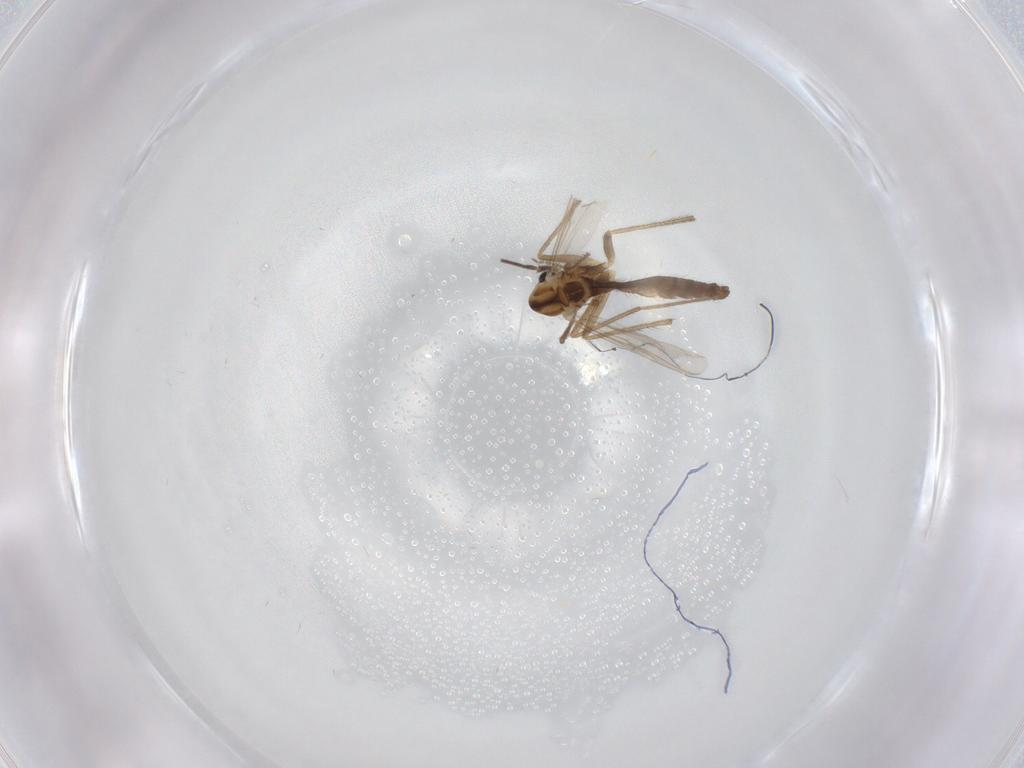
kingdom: Animalia
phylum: Arthropoda
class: Insecta
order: Diptera
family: Chironomidae
